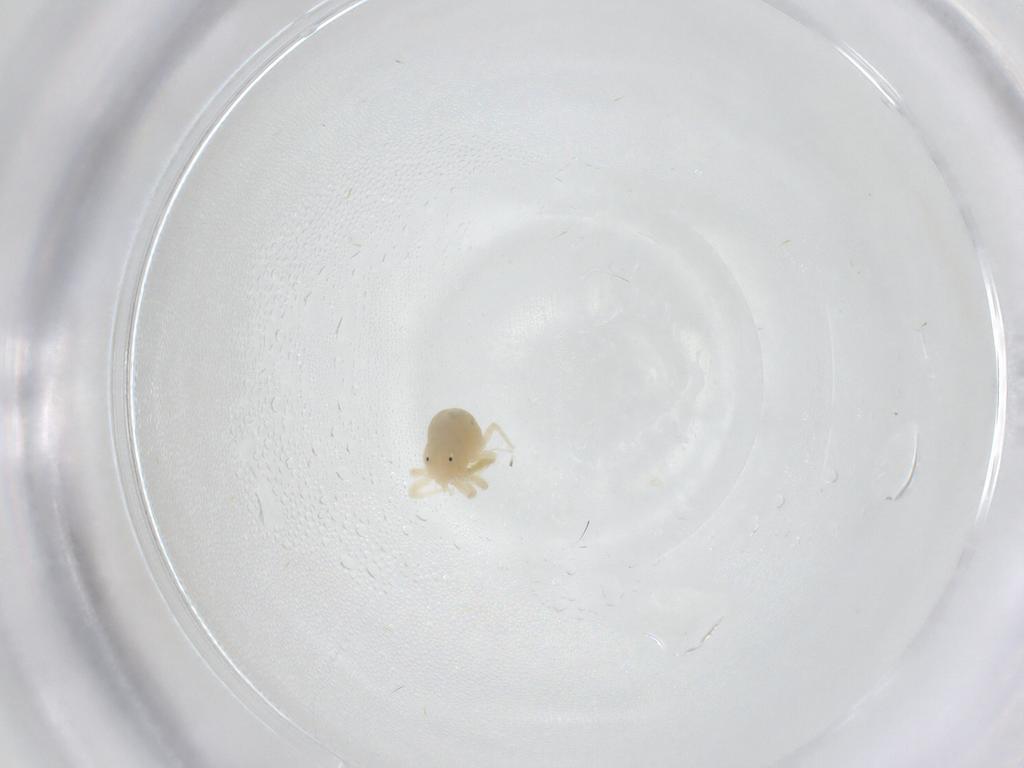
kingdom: Animalia
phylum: Arthropoda
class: Arachnida
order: Trombidiformes
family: Anystidae
